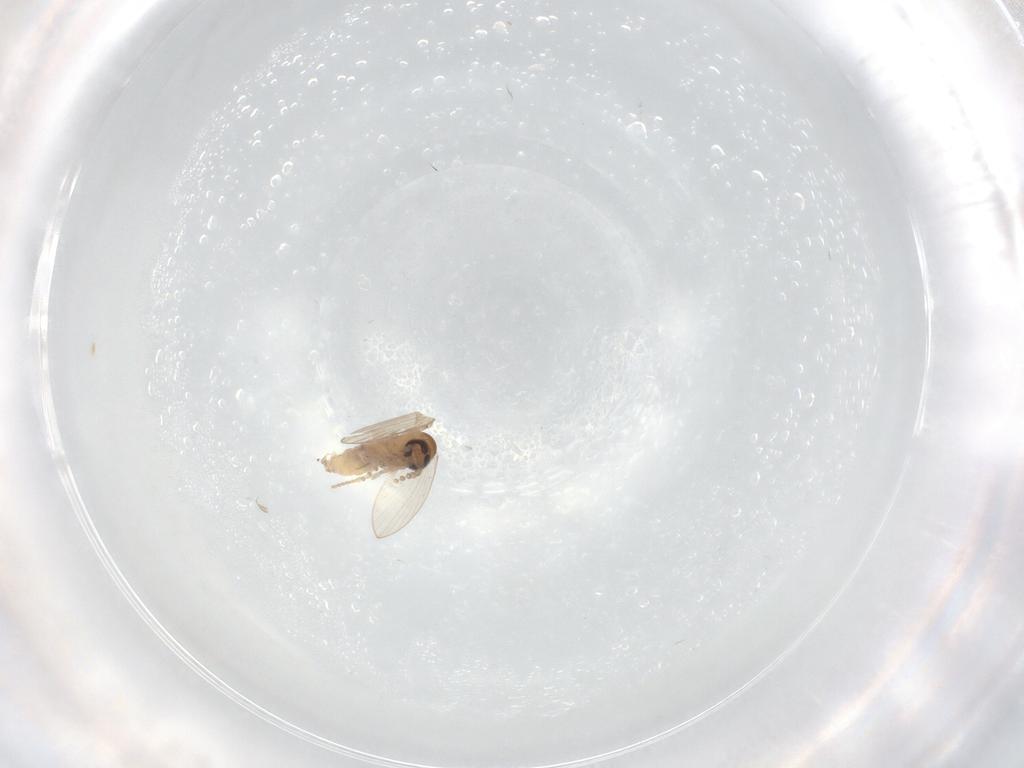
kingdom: Animalia
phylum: Arthropoda
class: Insecta
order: Diptera
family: Psychodidae
